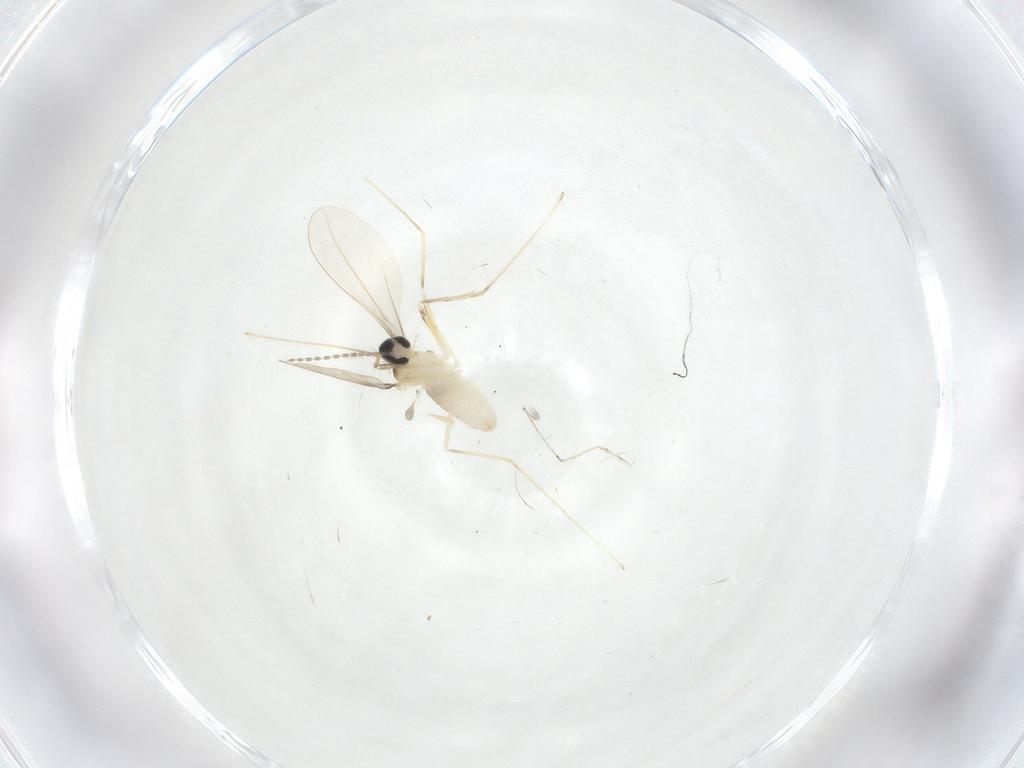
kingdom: Animalia
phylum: Arthropoda
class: Insecta
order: Diptera
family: Cecidomyiidae
